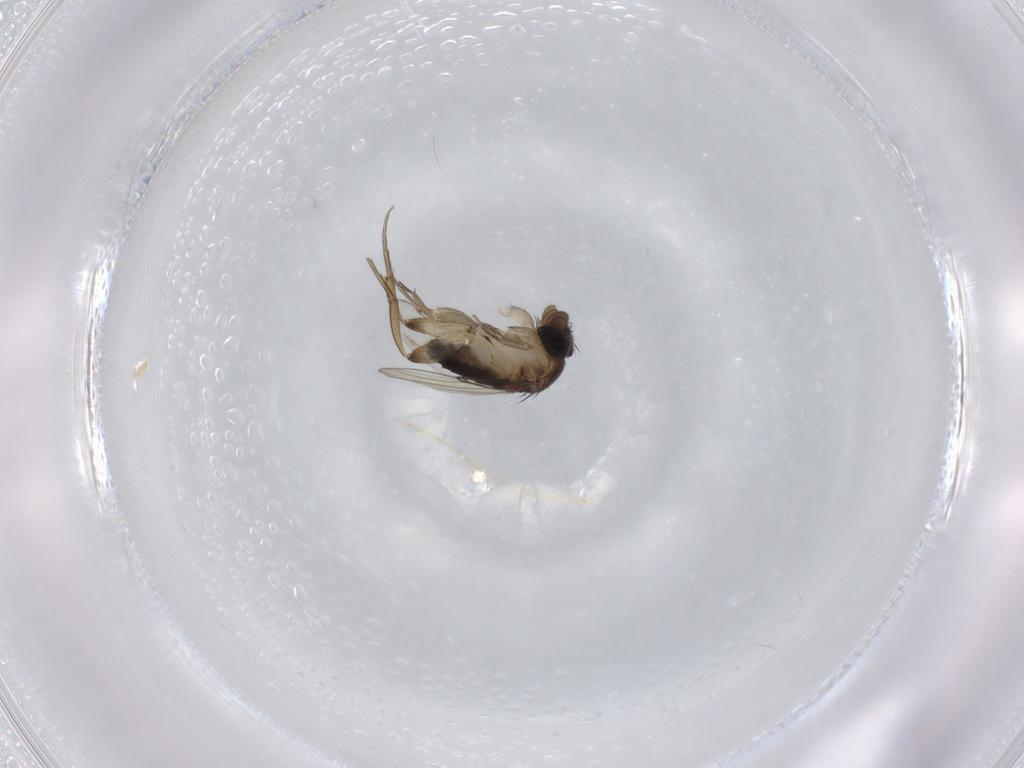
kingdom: Animalia
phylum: Arthropoda
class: Insecta
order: Diptera
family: Phoridae
